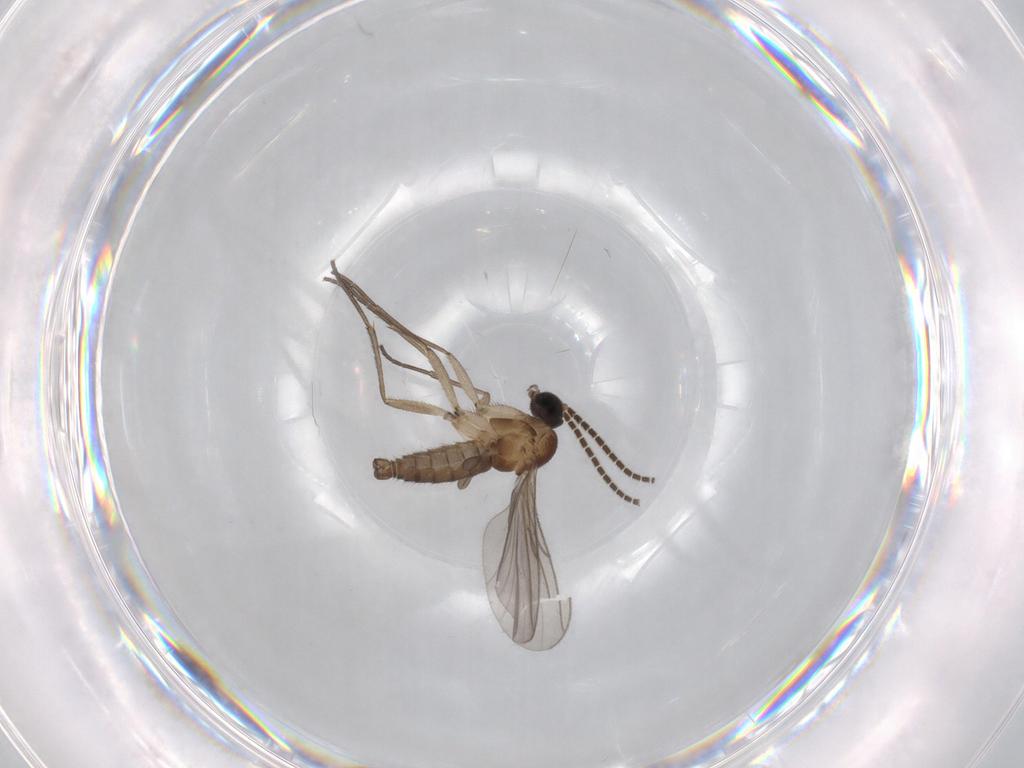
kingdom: Animalia
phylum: Arthropoda
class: Insecta
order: Diptera
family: Sciaridae
